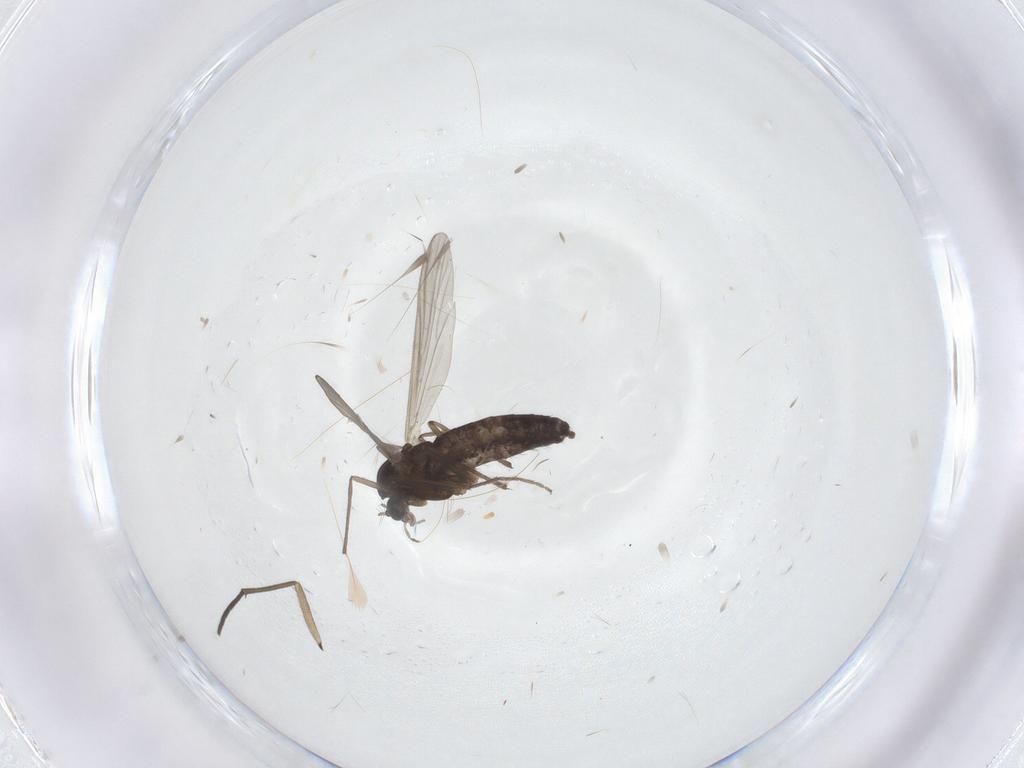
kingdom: Animalia
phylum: Arthropoda
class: Insecta
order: Diptera
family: Chironomidae
